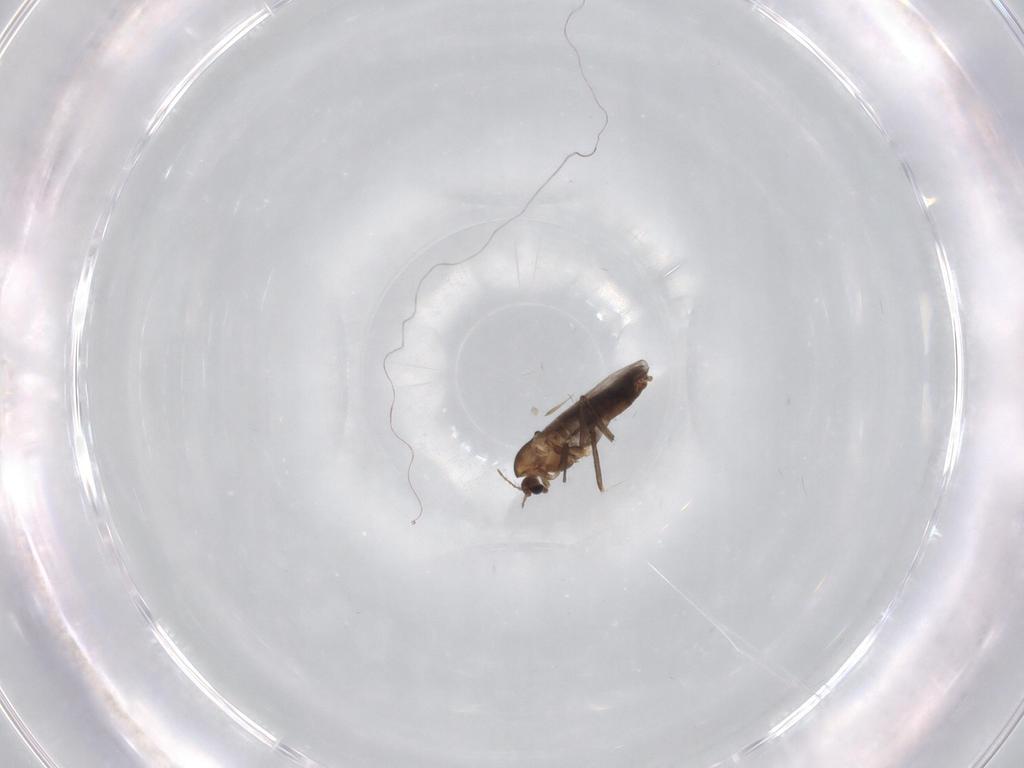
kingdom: Animalia
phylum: Arthropoda
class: Insecta
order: Diptera
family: Chironomidae
